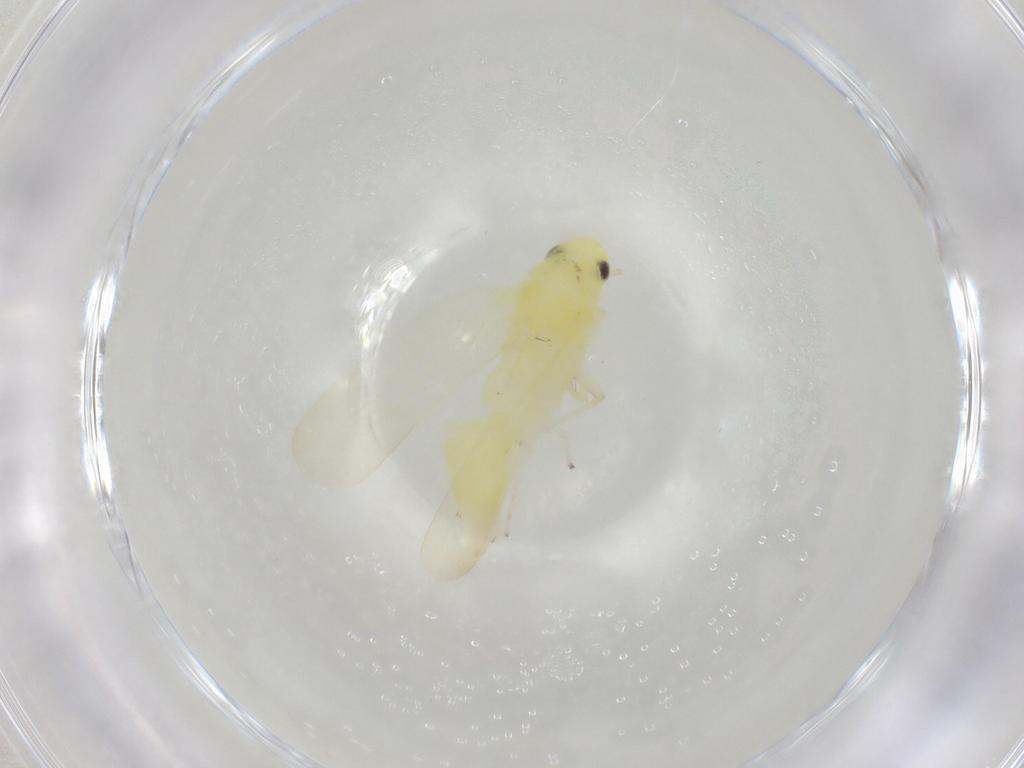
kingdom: Animalia
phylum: Arthropoda
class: Insecta
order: Hemiptera
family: Cicadellidae
